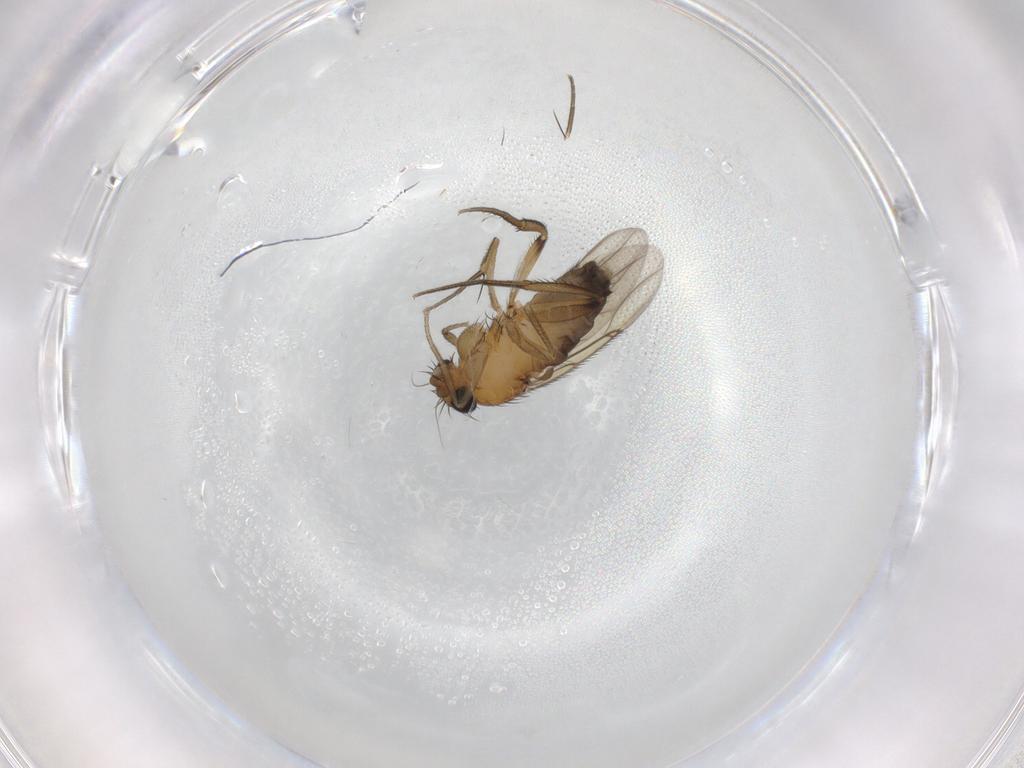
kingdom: Animalia
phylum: Arthropoda
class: Insecta
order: Diptera
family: Phoridae
